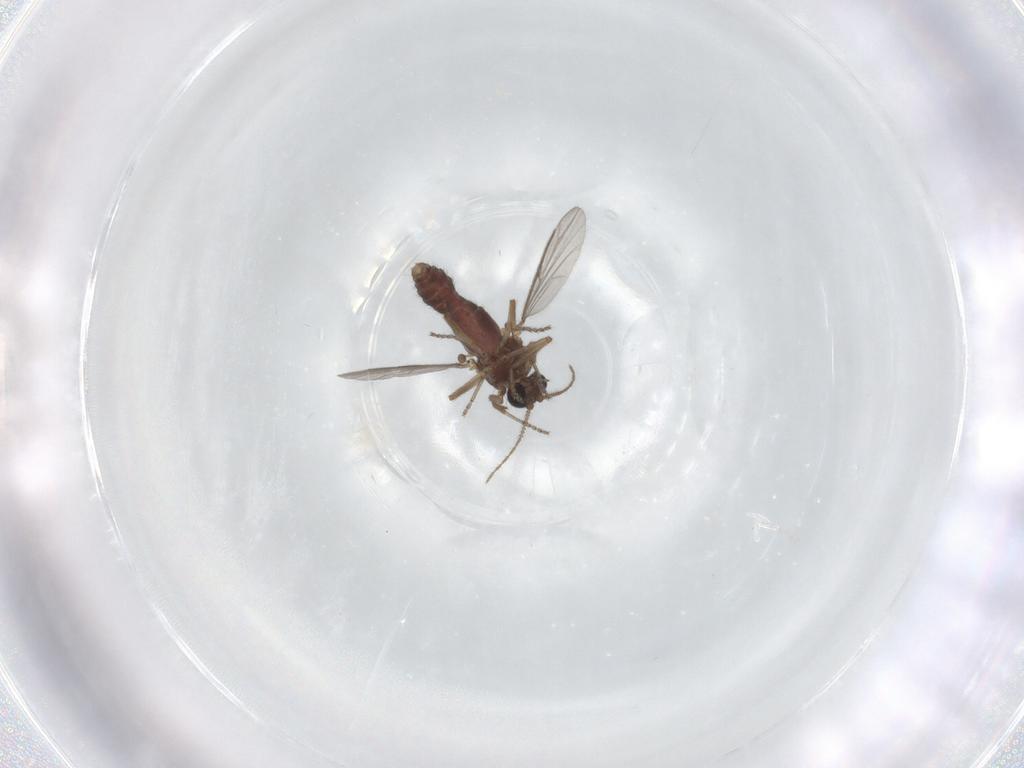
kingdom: Animalia
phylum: Arthropoda
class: Insecta
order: Diptera
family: Ceratopogonidae
